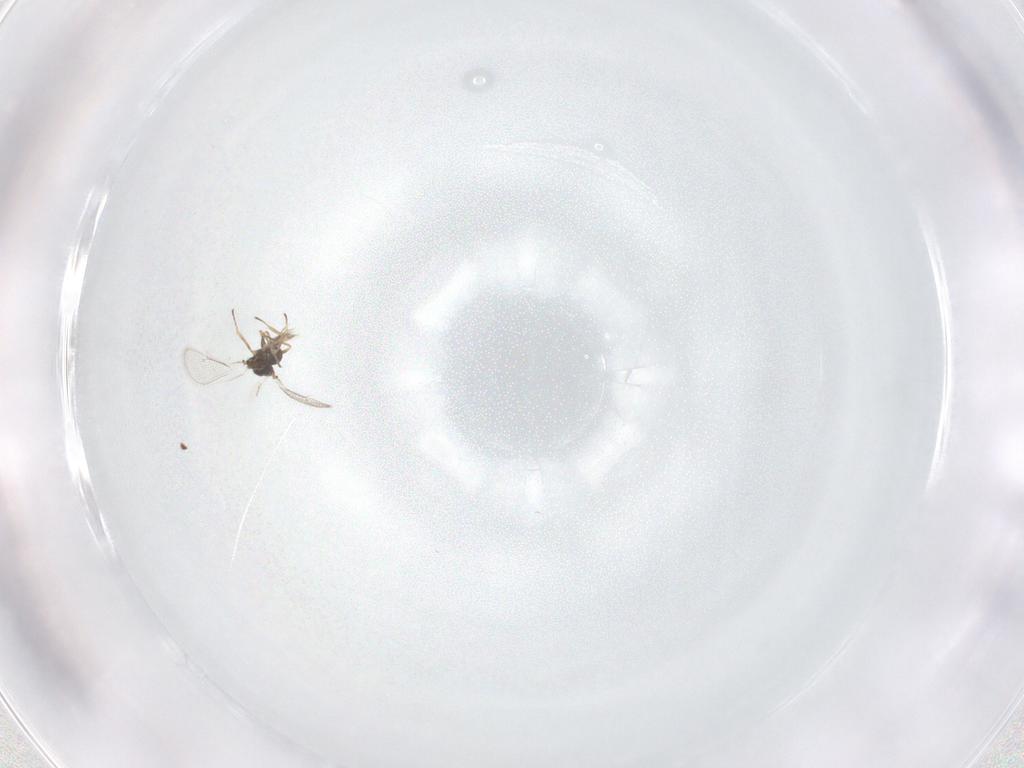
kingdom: Animalia
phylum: Arthropoda
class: Insecta
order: Hymenoptera
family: Eulophidae
